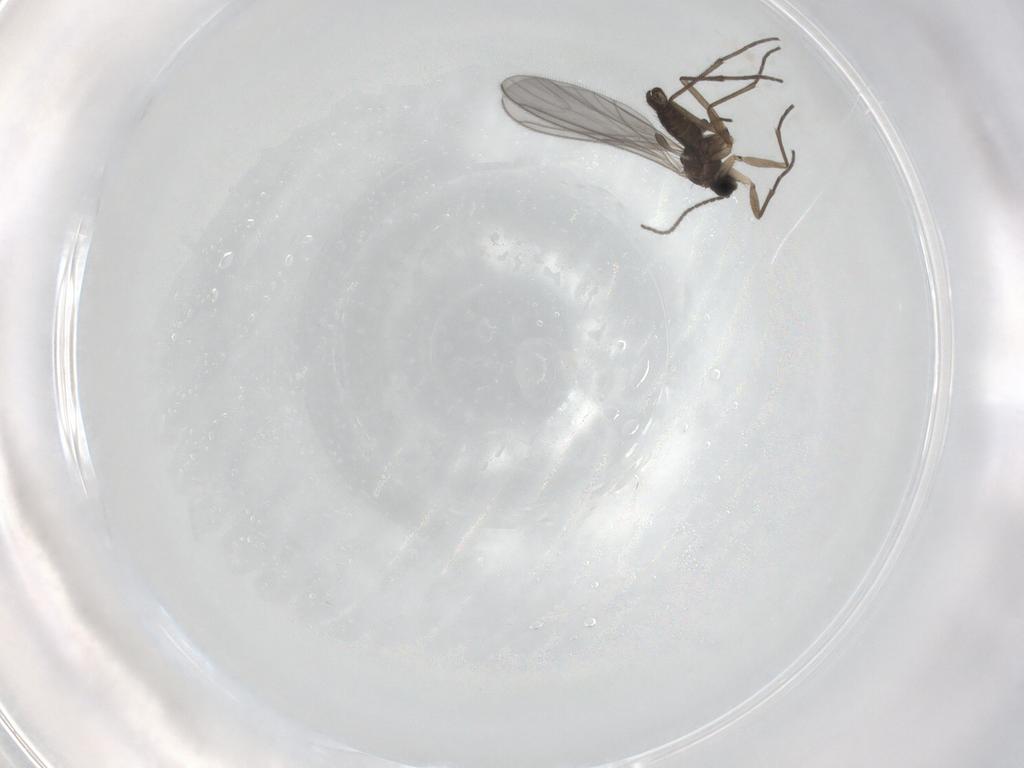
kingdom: Animalia
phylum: Arthropoda
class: Insecta
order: Diptera
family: Sciaridae
